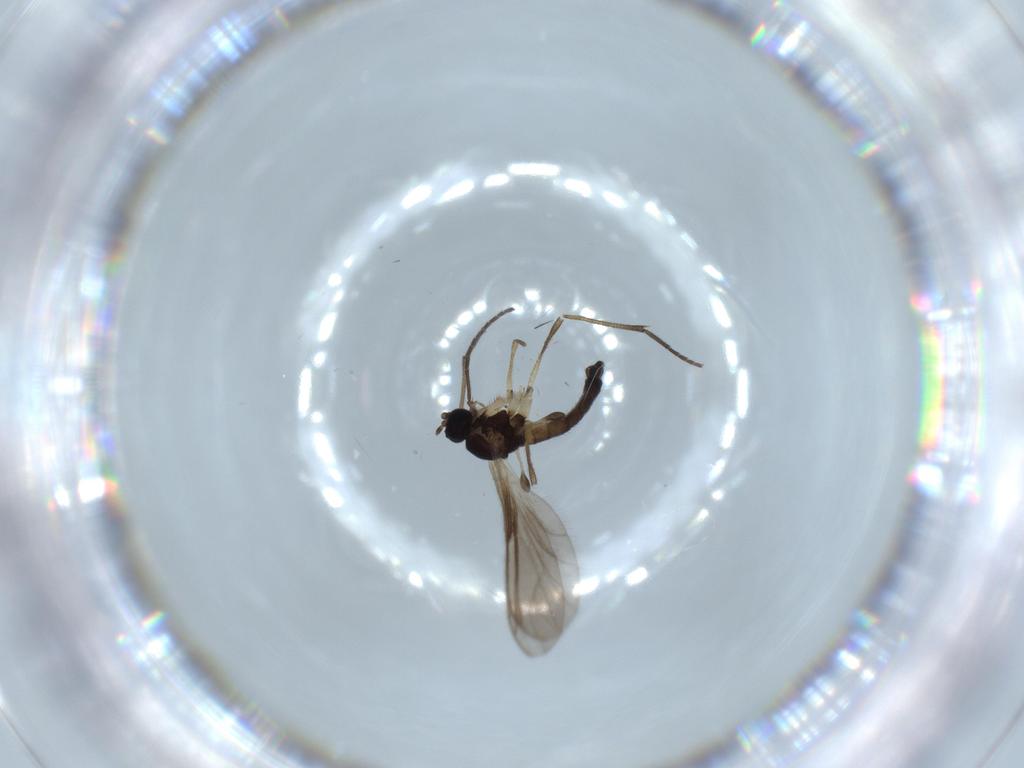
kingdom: Animalia
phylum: Arthropoda
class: Insecta
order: Diptera
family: Sciaridae
